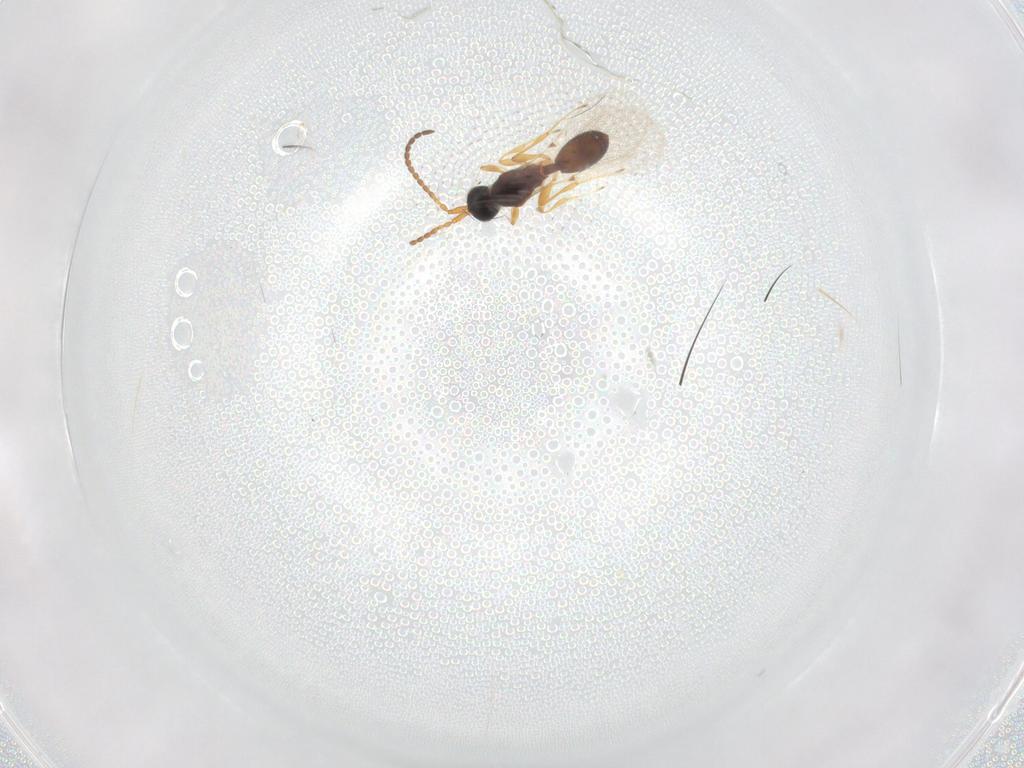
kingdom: Animalia
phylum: Arthropoda
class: Insecta
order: Hymenoptera
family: Diapriidae
